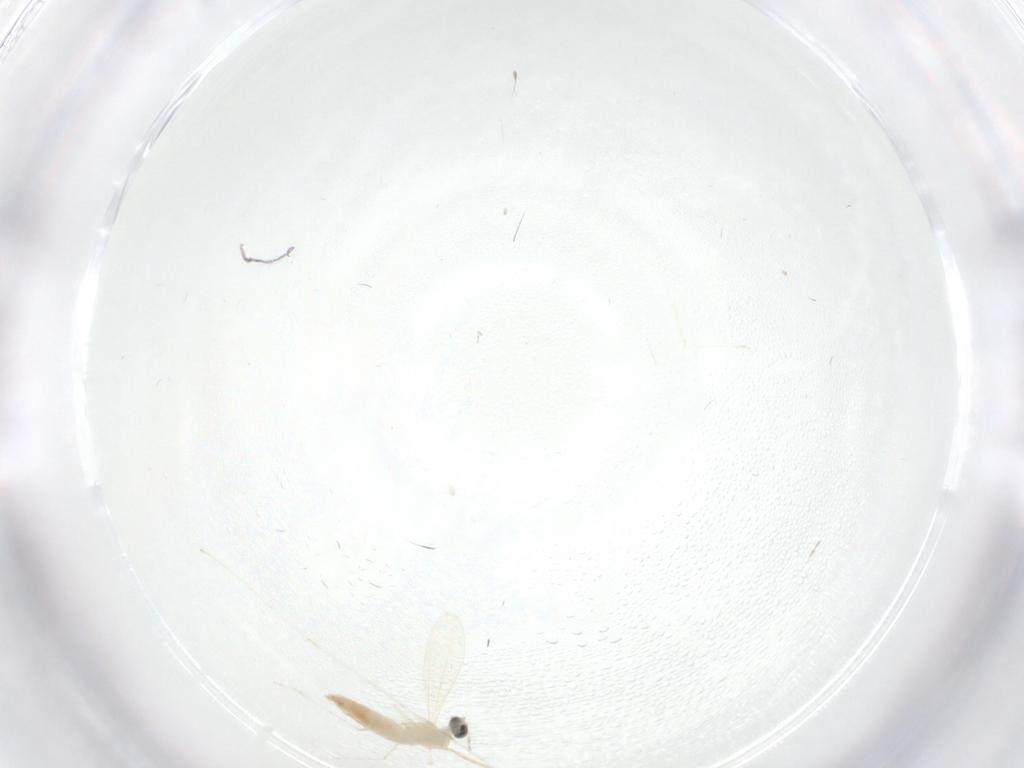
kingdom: Animalia
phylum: Arthropoda
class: Insecta
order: Diptera
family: Cecidomyiidae
